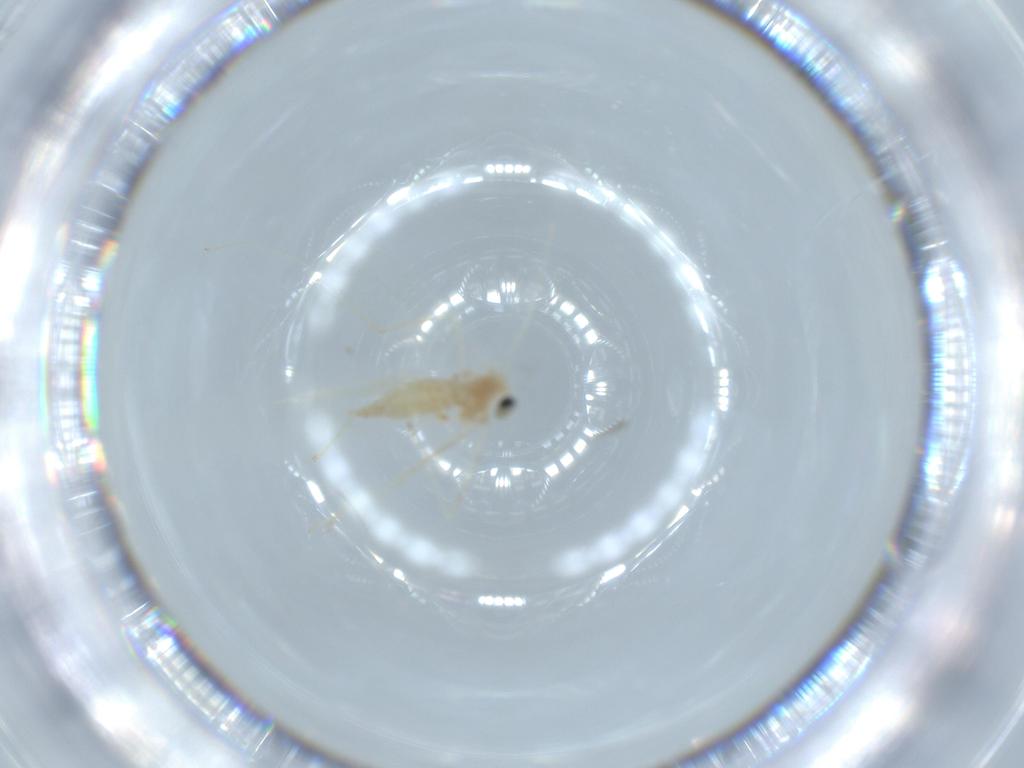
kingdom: Animalia
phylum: Arthropoda
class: Insecta
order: Diptera
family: Cecidomyiidae
